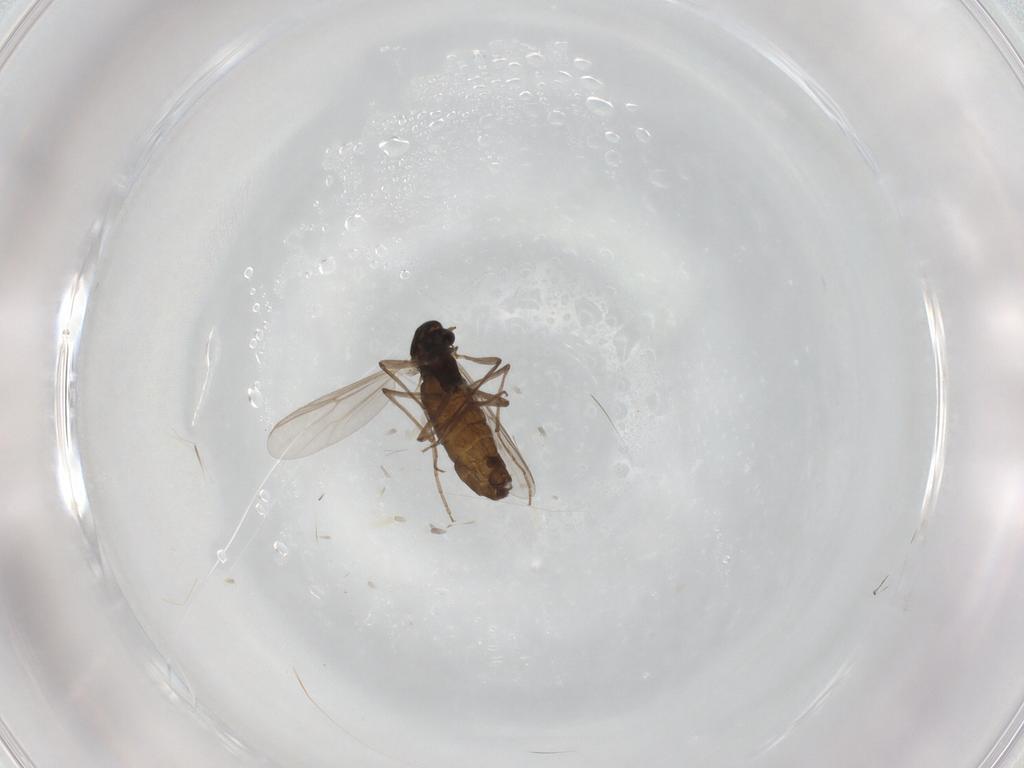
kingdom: Animalia
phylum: Arthropoda
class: Insecta
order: Diptera
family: Chironomidae
